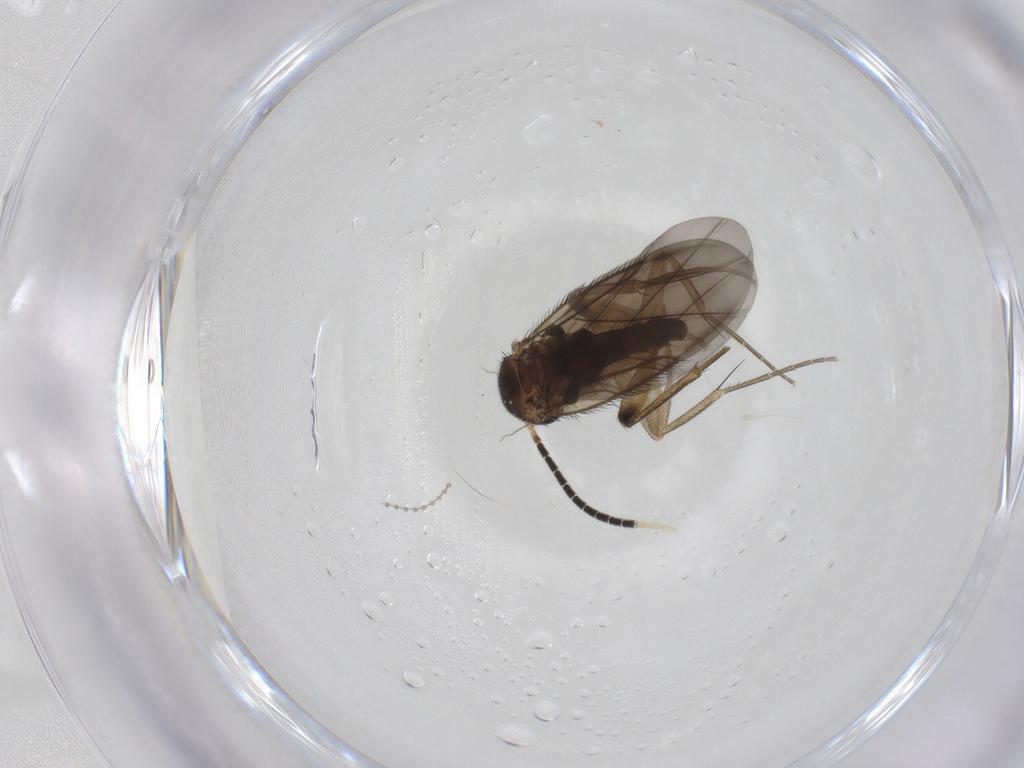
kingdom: Animalia
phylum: Arthropoda
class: Insecta
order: Diptera
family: Phoridae
